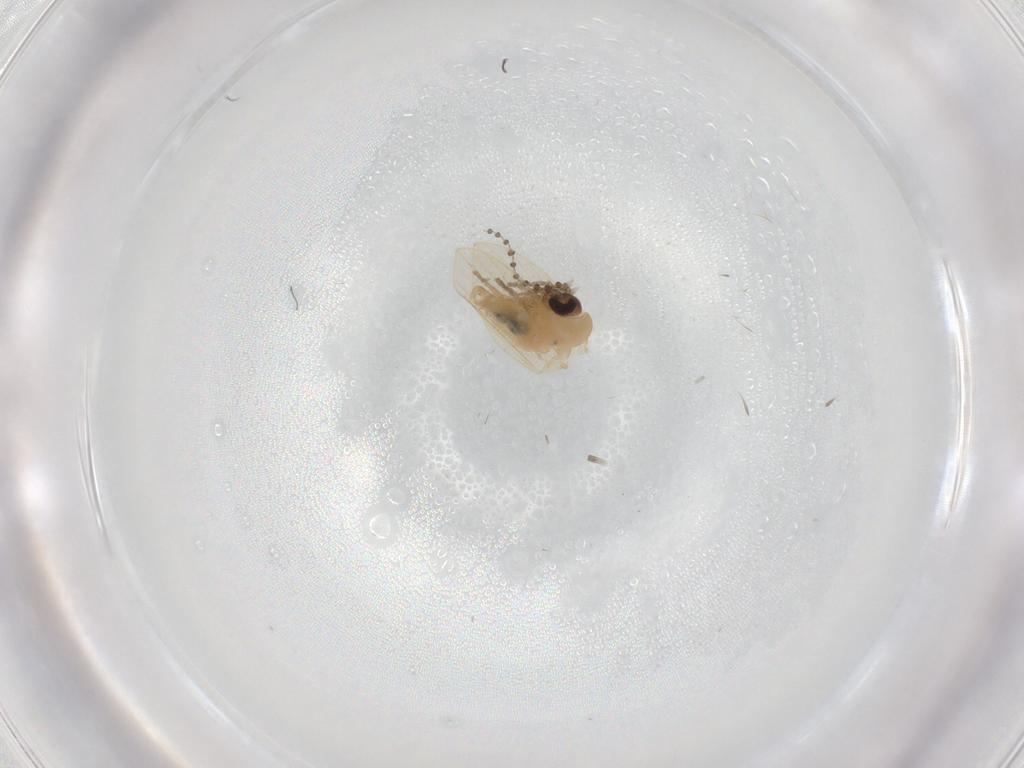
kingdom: Animalia
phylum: Arthropoda
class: Insecta
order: Diptera
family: Psychodidae
